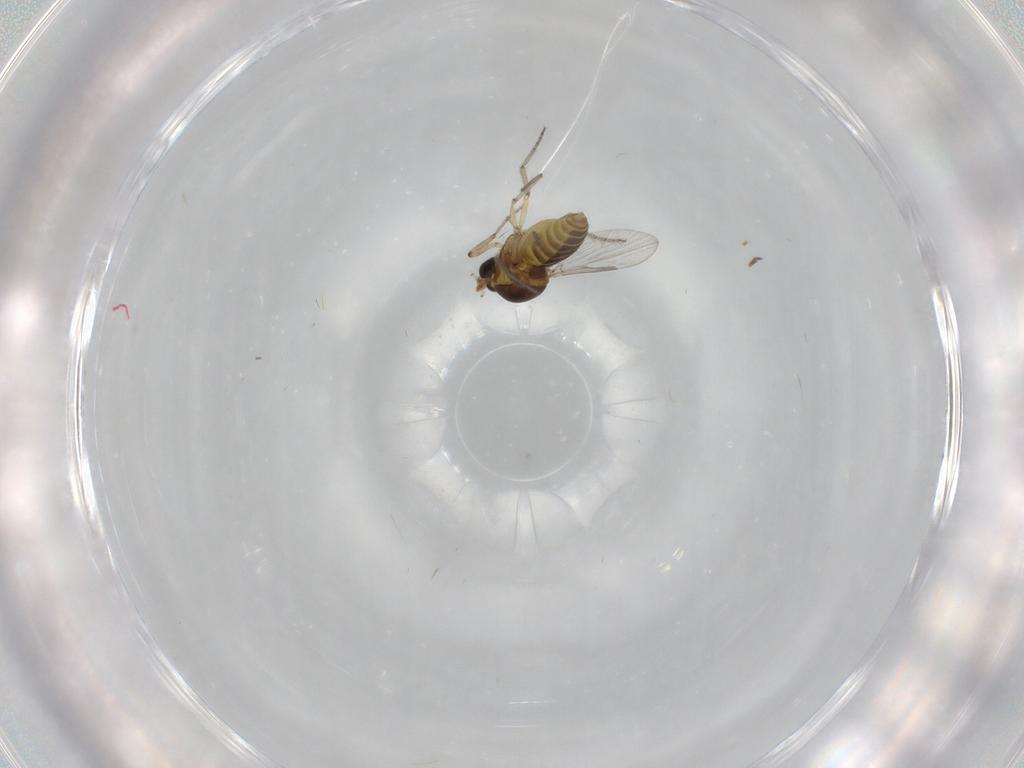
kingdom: Animalia
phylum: Arthropoda
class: Insecta
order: Diptera
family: Ceratopogonidae
